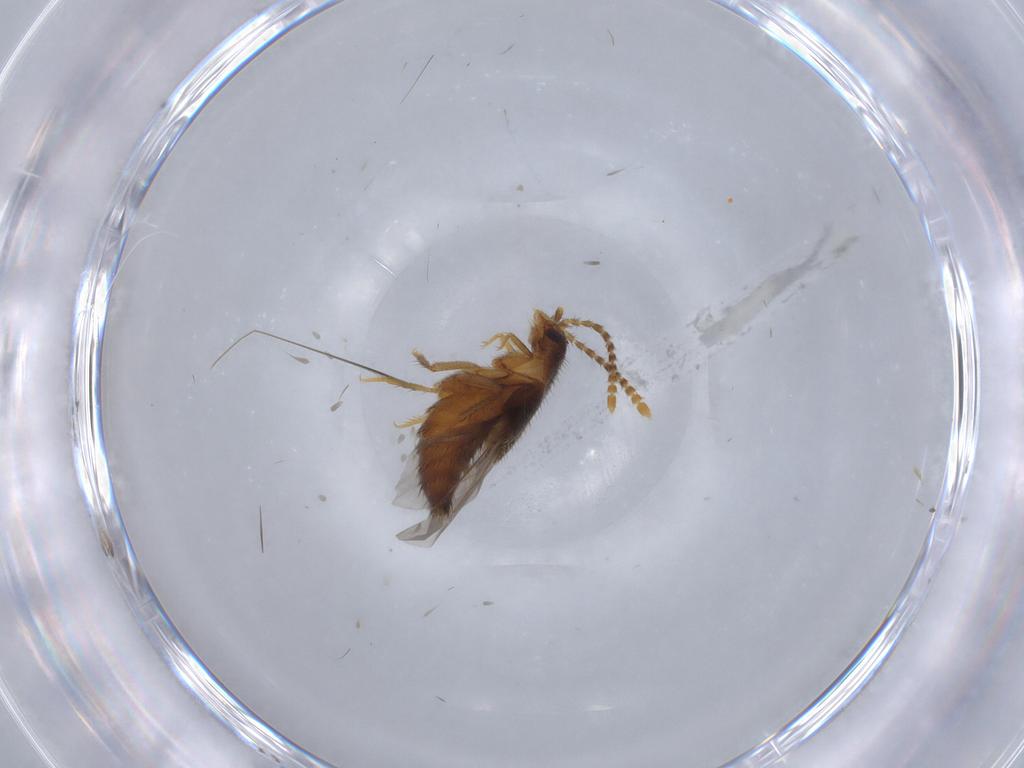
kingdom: Animalia
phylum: Arthropoda
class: Insecta
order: Coleoptera
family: Staphylinidae
